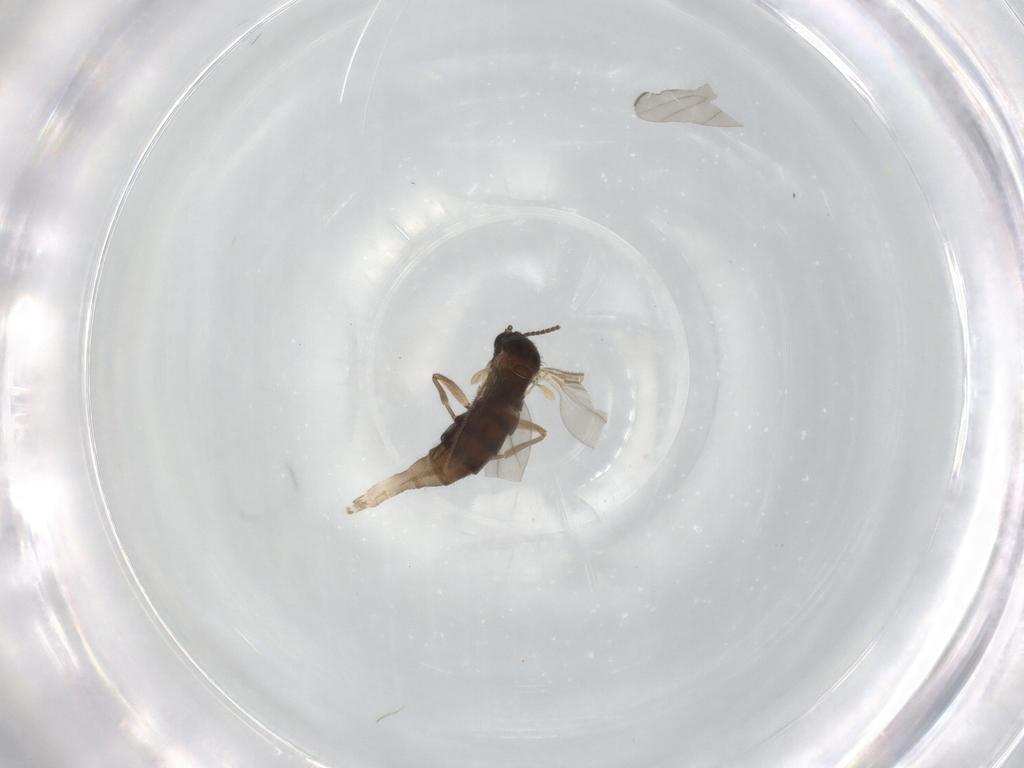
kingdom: Animalia
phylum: Arthropoda
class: Insecta
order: Diptera
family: Sciaridae
